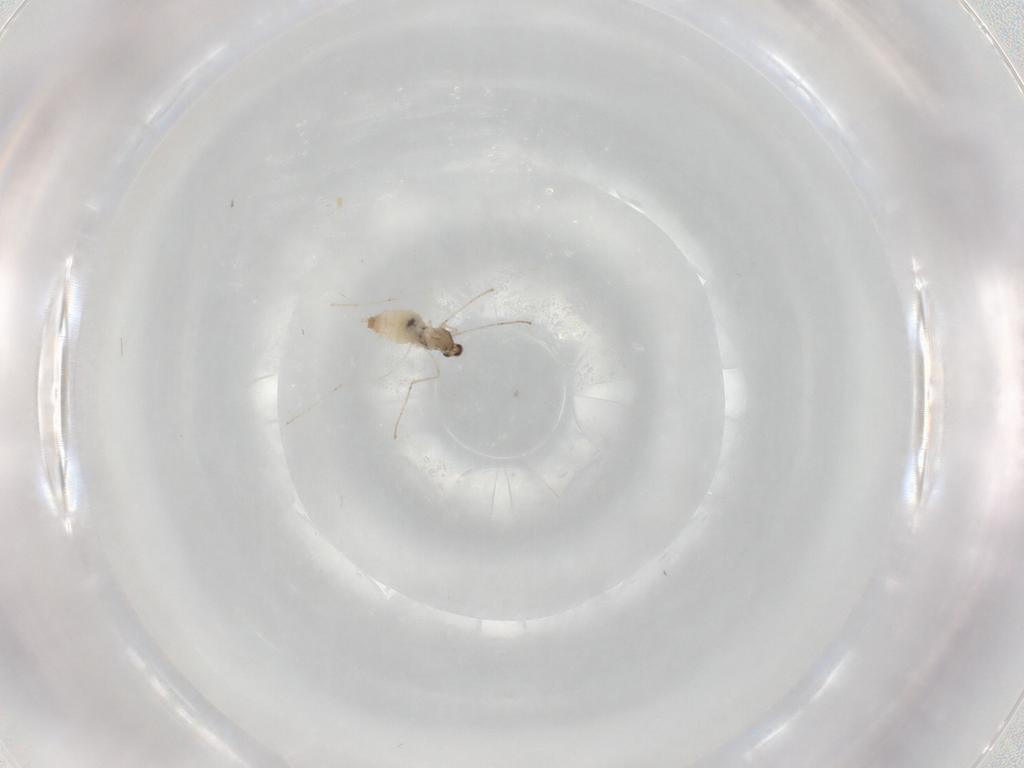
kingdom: Animalia
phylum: Arthropoda
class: Insecta
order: Diptera
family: Cecidomyiidae
